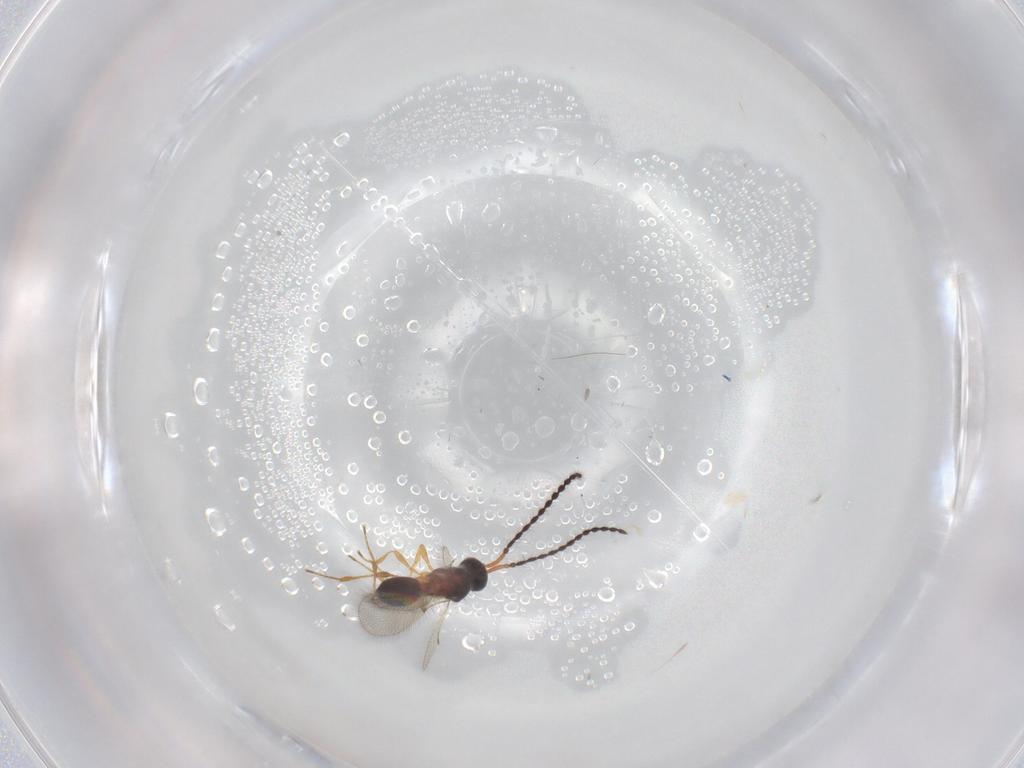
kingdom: Animalia
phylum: Arthropoda
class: Insecta
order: Hymenoptera
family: Diapriidae
